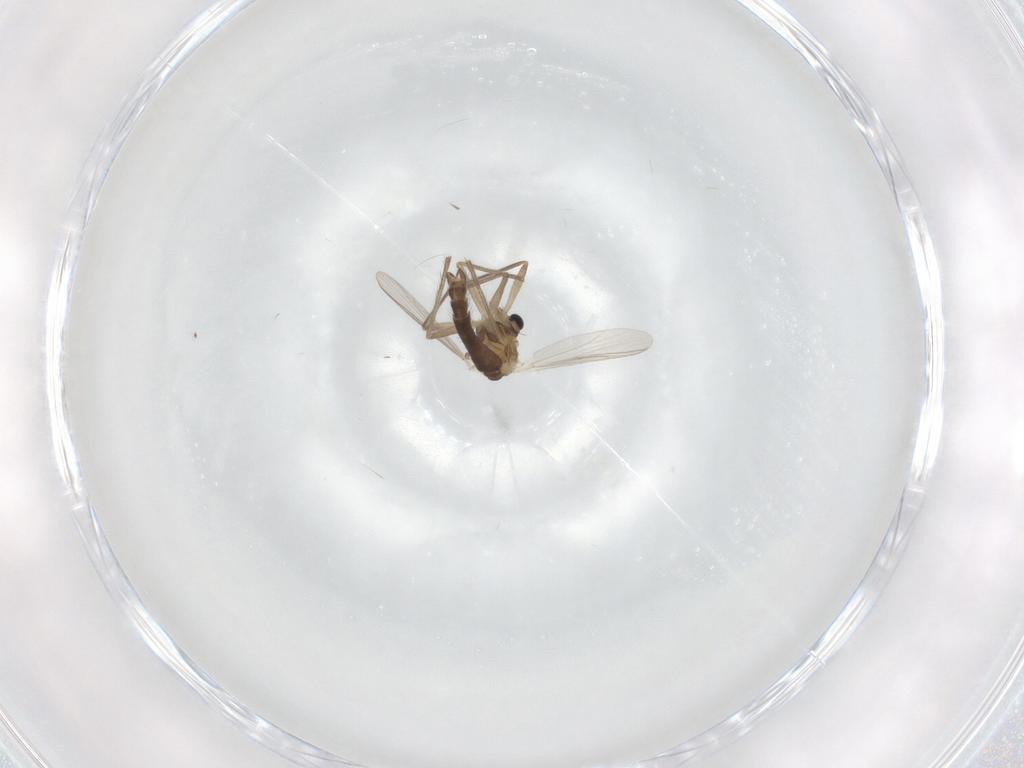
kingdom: Animalia
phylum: Arthropoda
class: Insecta
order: Diptera
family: Chironomidae
